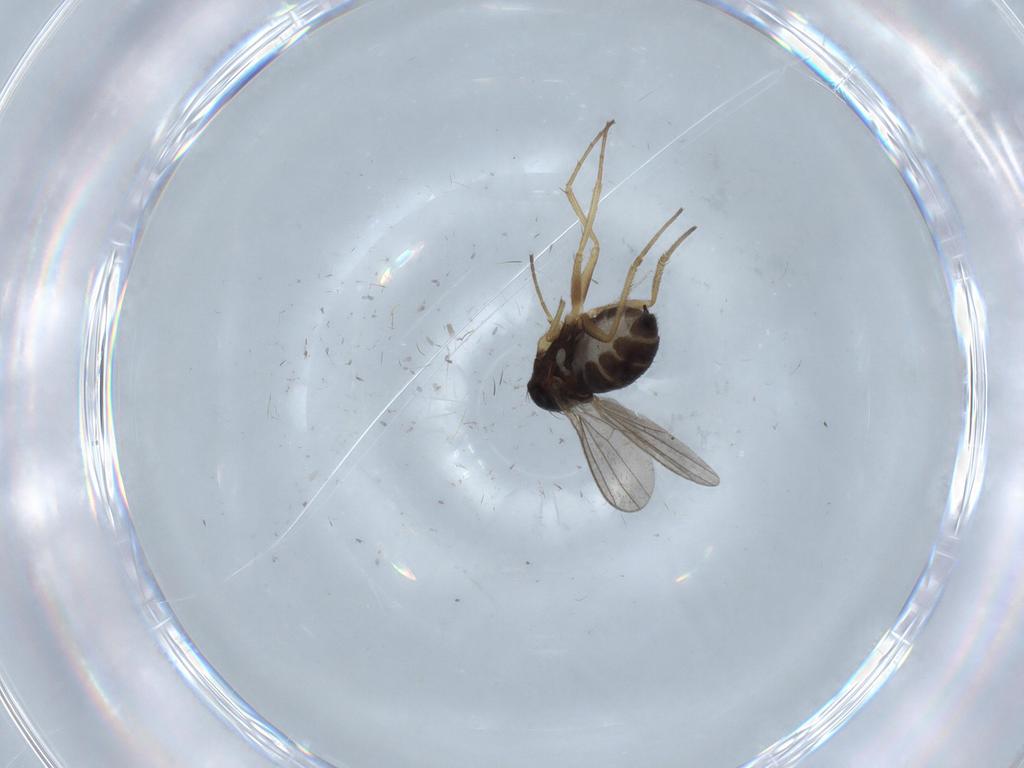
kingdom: Animalia
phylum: Arthropoda
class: Insecta
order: Diptera
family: Dolichopodidae
